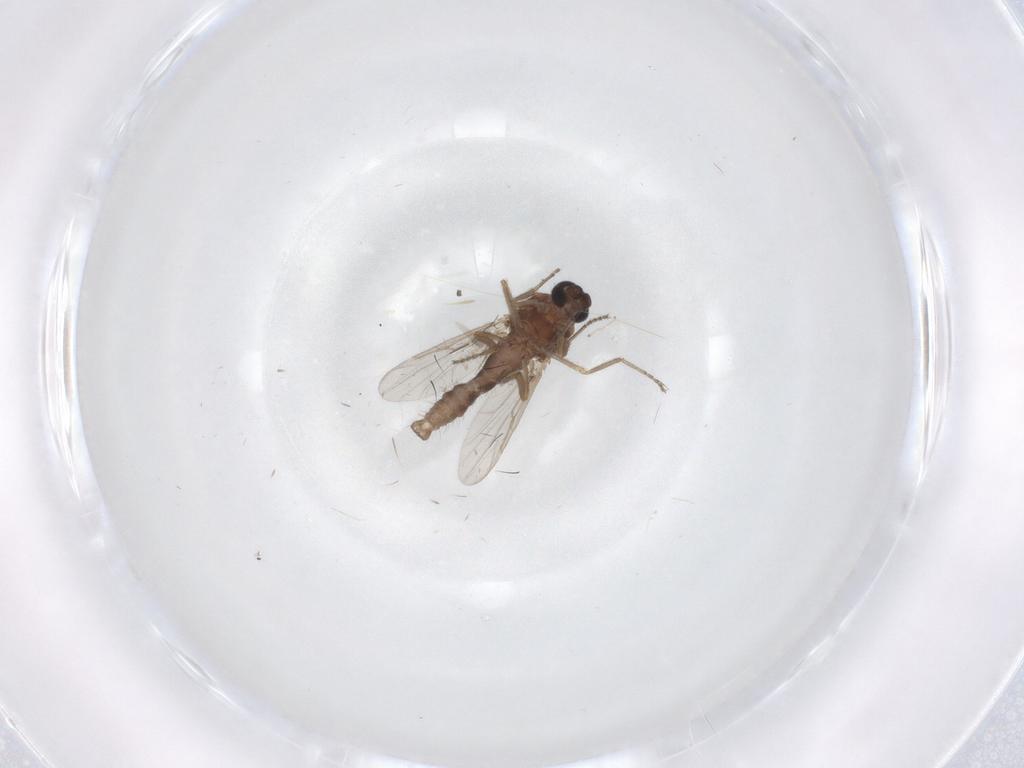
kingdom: Animalia
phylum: Arthropoda
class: Insecta
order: Diptera
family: Ceratopogonidae
